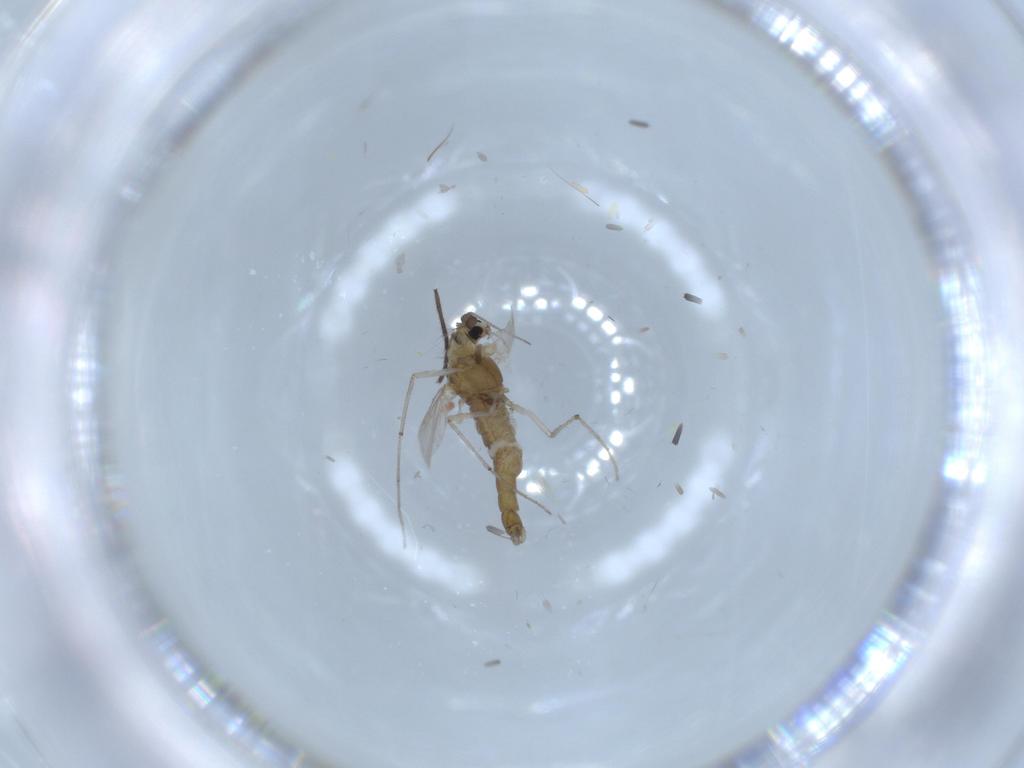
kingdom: Animalia
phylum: Arthropoda
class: Insecta
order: Diptera
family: Chironomidae
